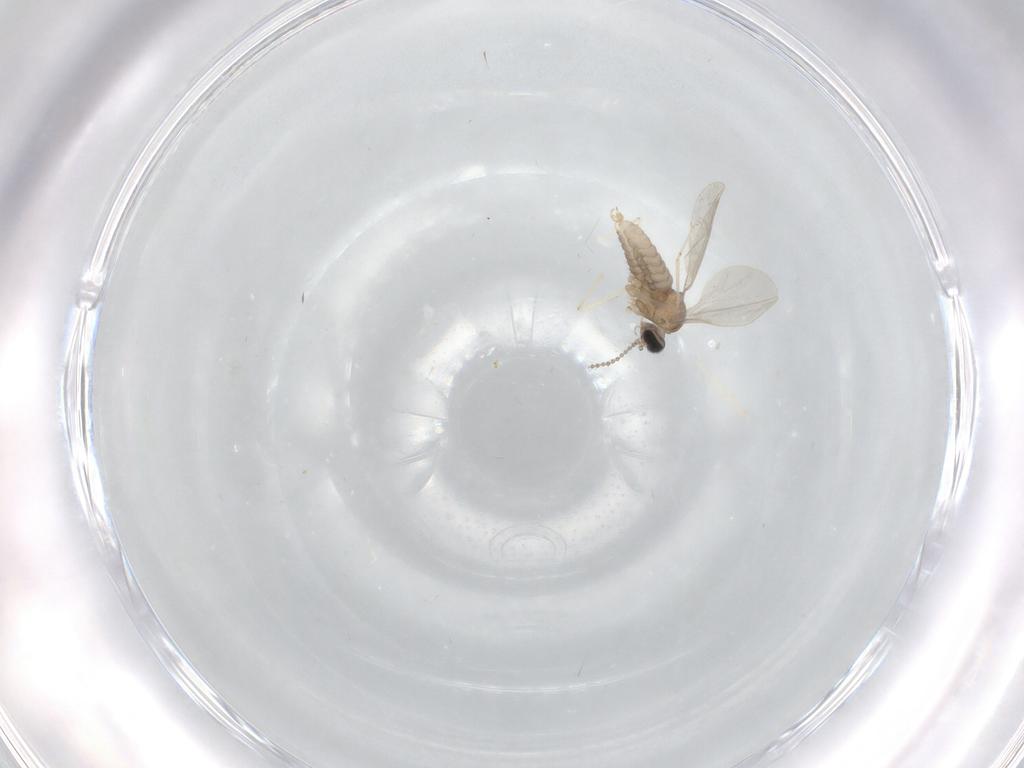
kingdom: Animalia
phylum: Arthropoda
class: Insecta
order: Diptera
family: Cecidomyiidae
